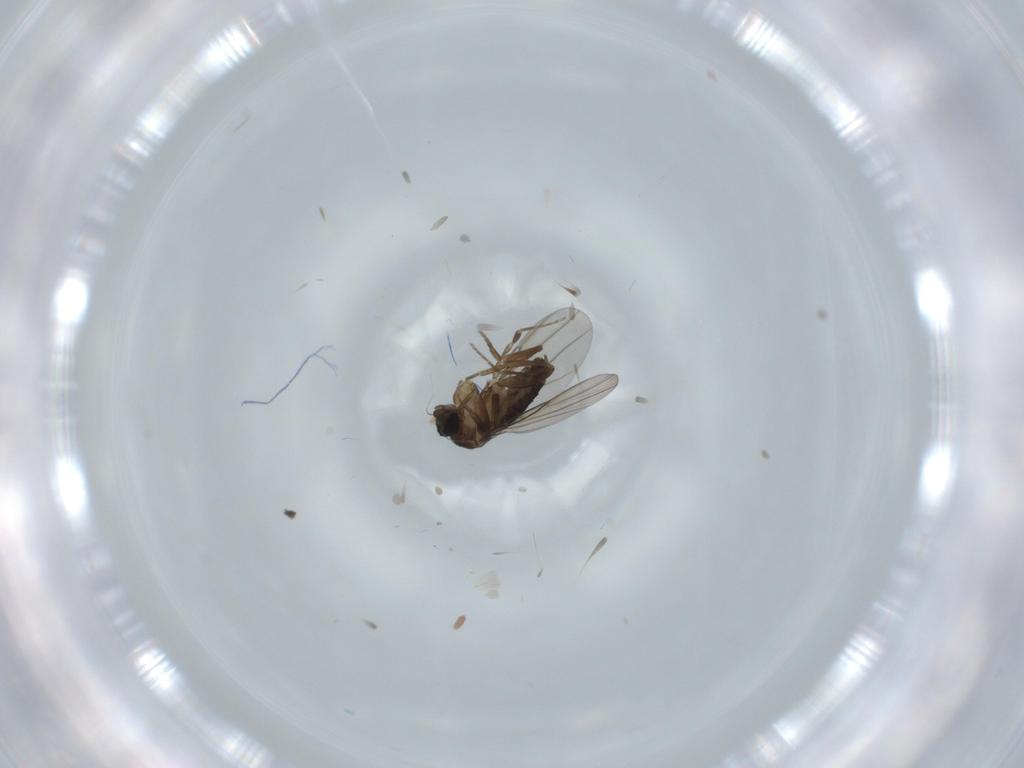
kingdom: Animalia
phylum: Arthropoda
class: Insecta
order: Diptera
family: Phoridae
